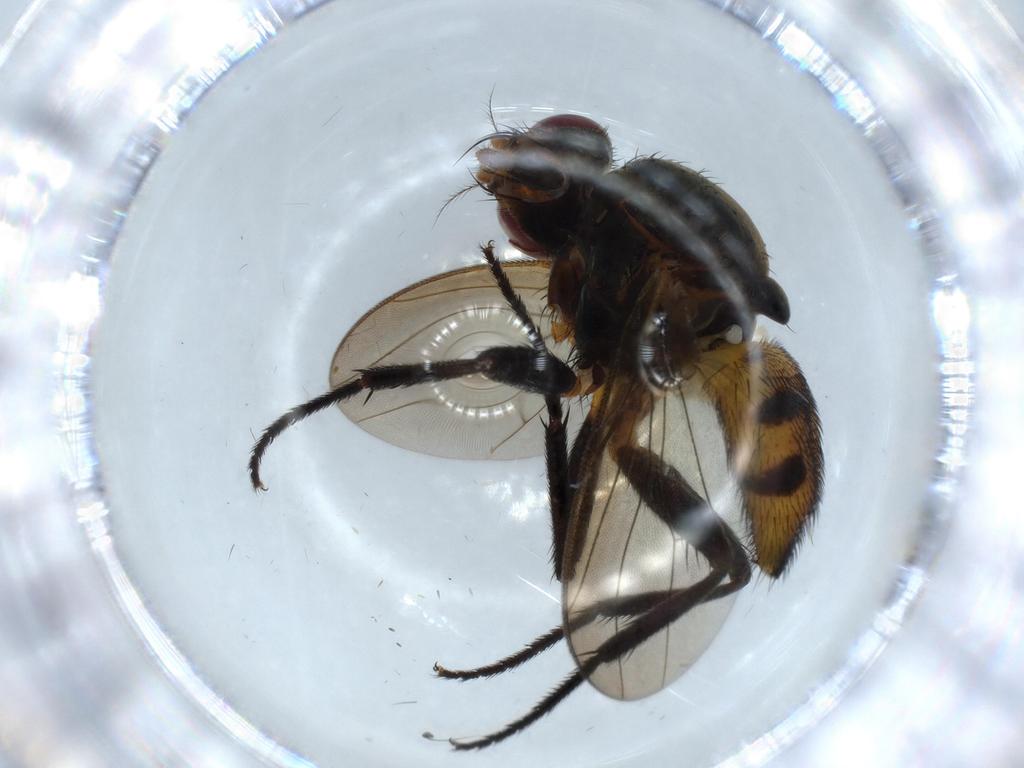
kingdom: Animalia
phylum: Arthropoda
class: Insecta
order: Diptera
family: Anthomyiidae
